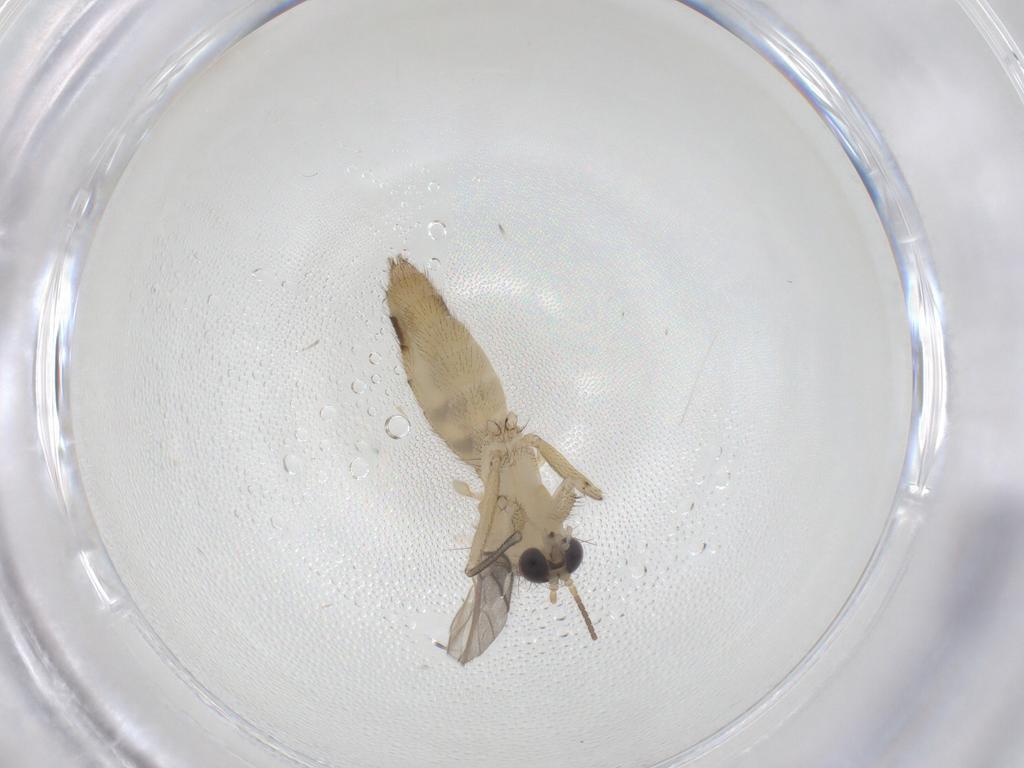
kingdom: Animalia
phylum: Arthropoda
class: Insecta
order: Diptera
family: Mycetophilidae
